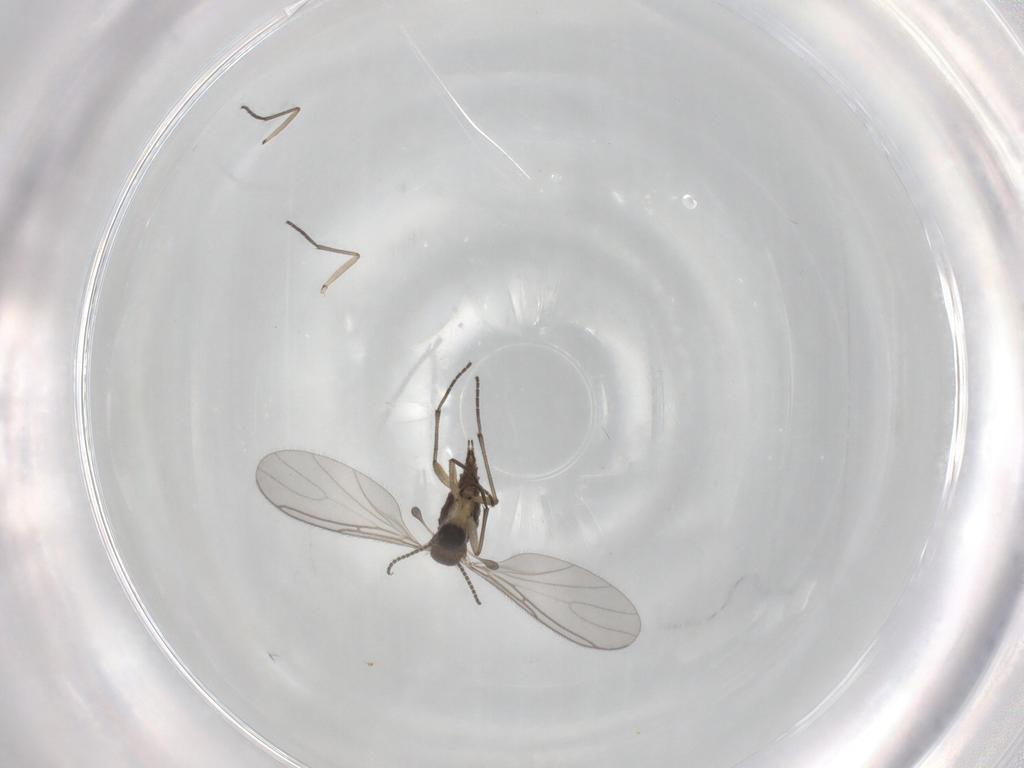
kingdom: Animalia
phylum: Arthropoda
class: Insecta
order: Diptera
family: Sciaridae
